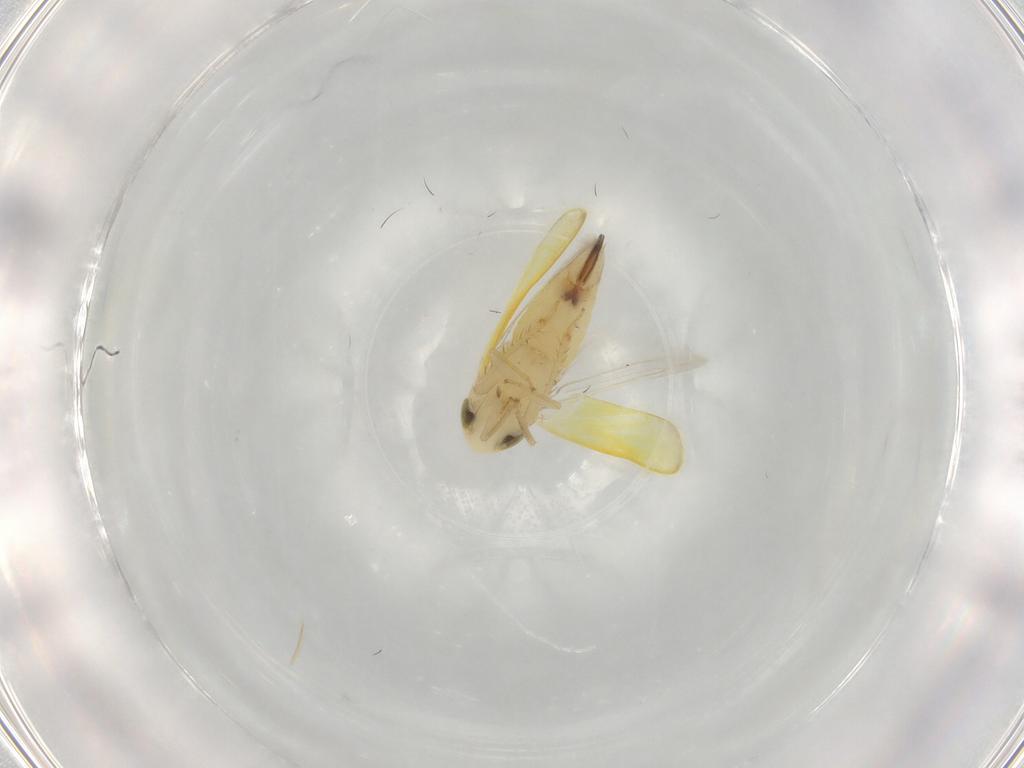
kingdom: Animalia
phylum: Arthropoda
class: Insecta
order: Hemiptera
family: Cicadellidae
